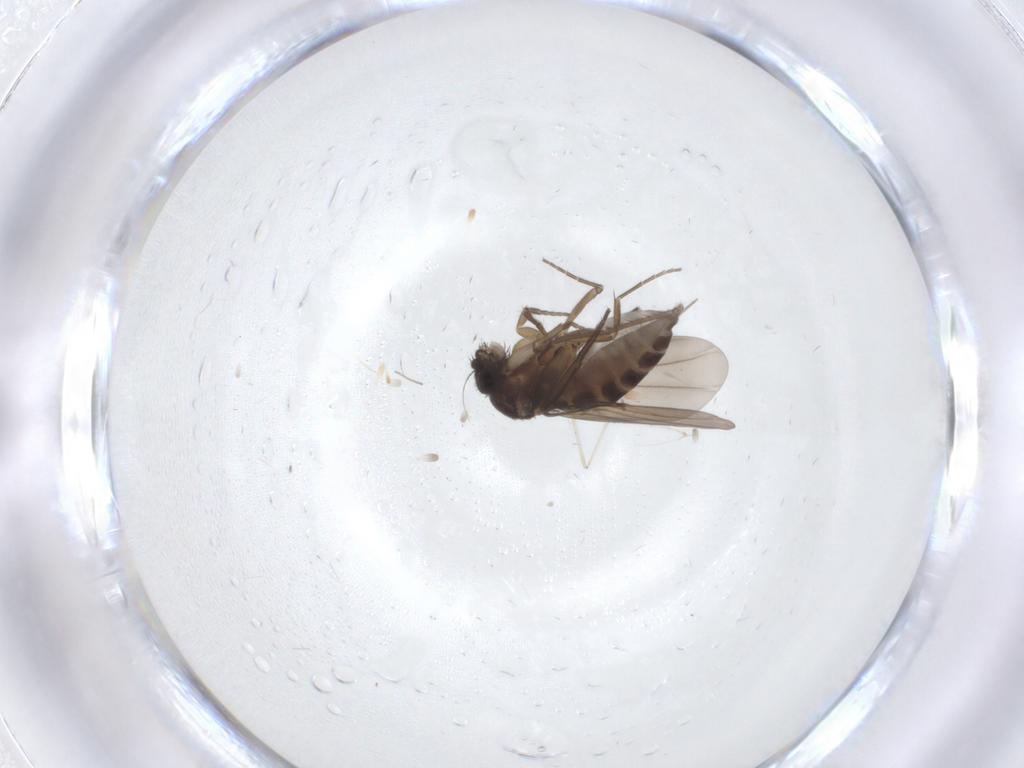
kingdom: Animalia
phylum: Arthropoda
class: Insecta
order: Diptera
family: Phoridae
